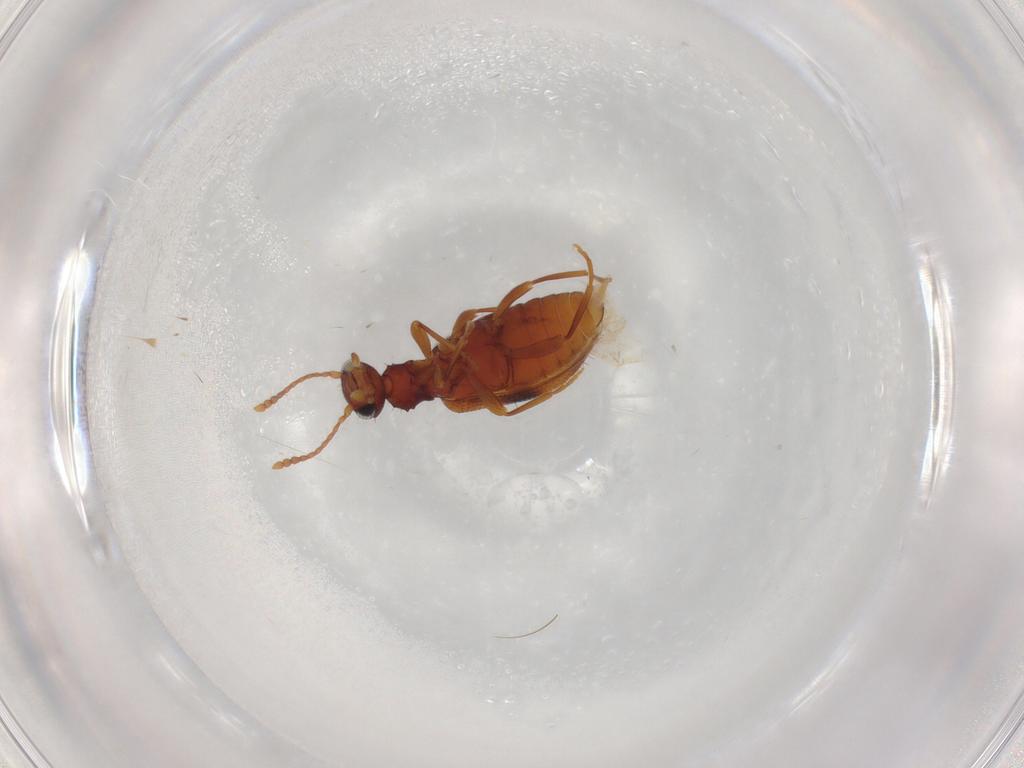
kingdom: Animalia
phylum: Arthropoda
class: Insecta
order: Coleoptera
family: Anthicidae
